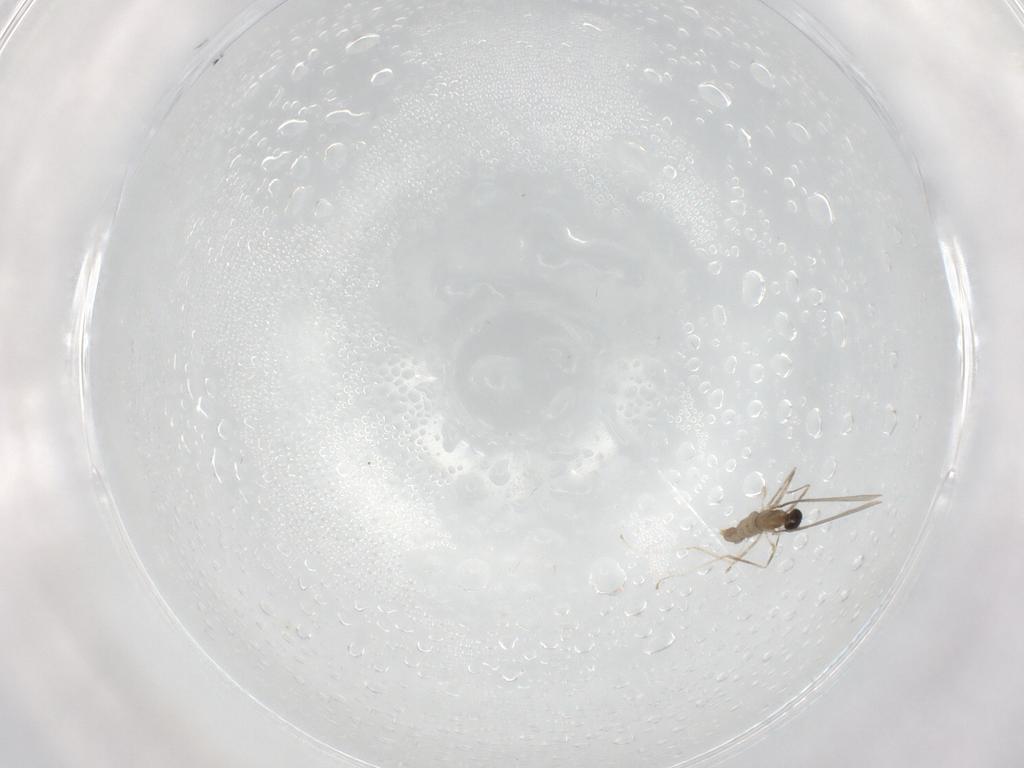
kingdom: Animalia
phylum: Arthropoda
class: Insecta
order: Diptera
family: Cecidomyiidae
